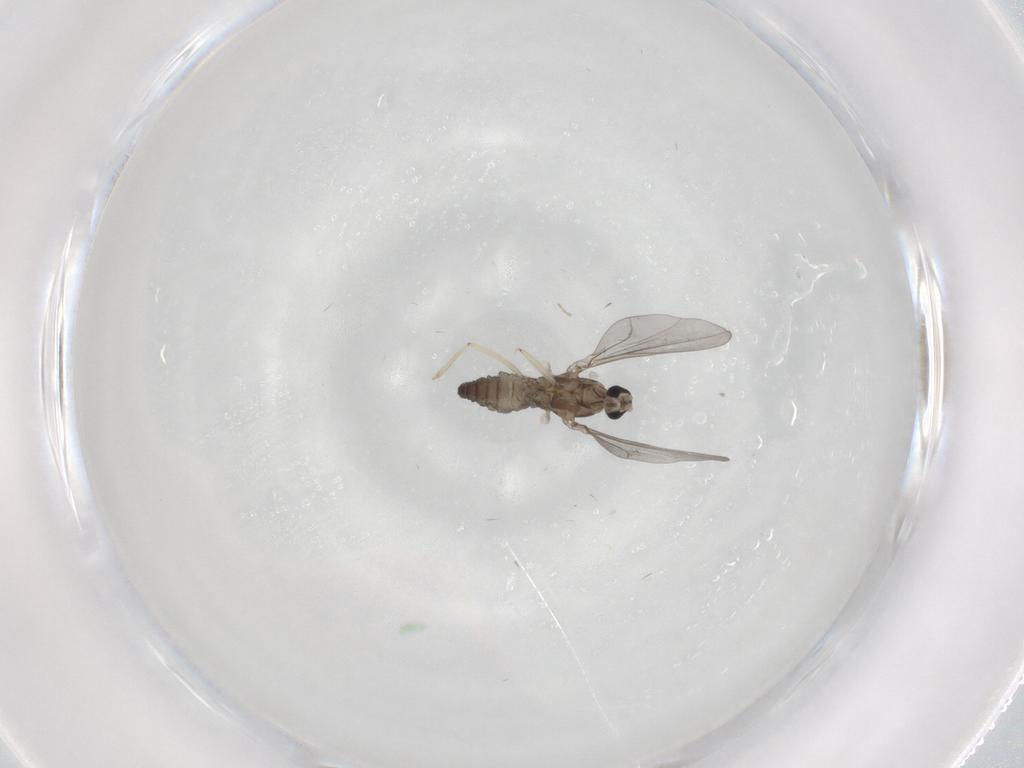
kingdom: Animalia
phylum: Arthropoda
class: Insecta
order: Diptera
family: Cecidomyiidae
